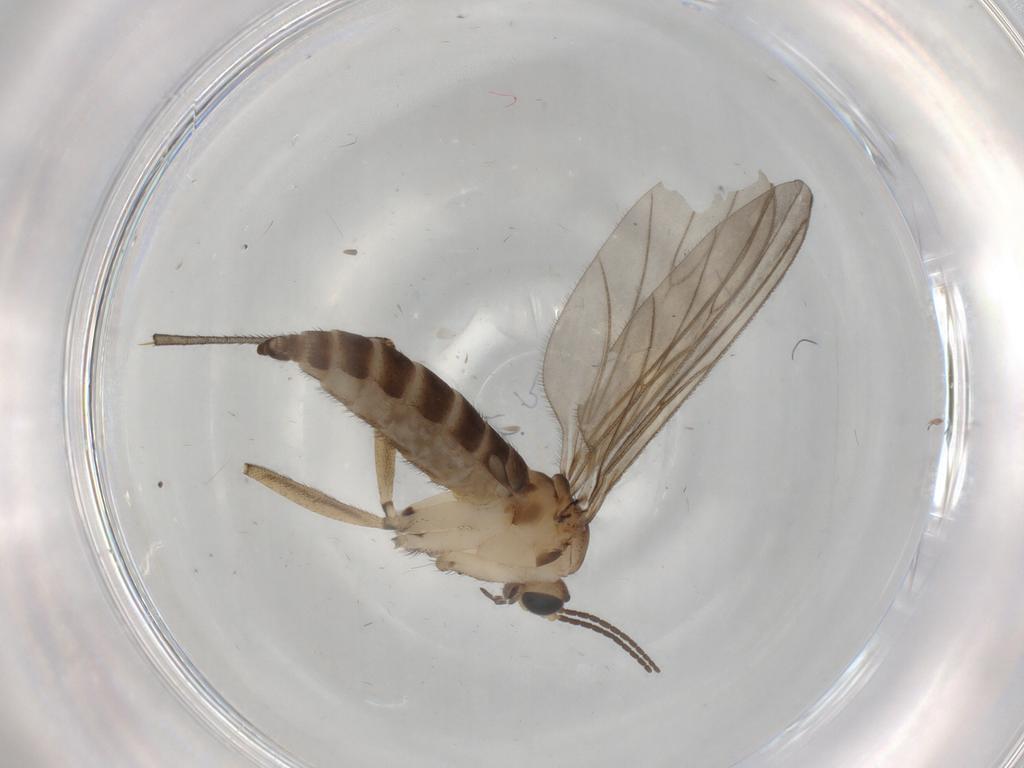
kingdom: Animalia
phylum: Arthropoda
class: Insecta
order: Diptera
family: Sciaridae
